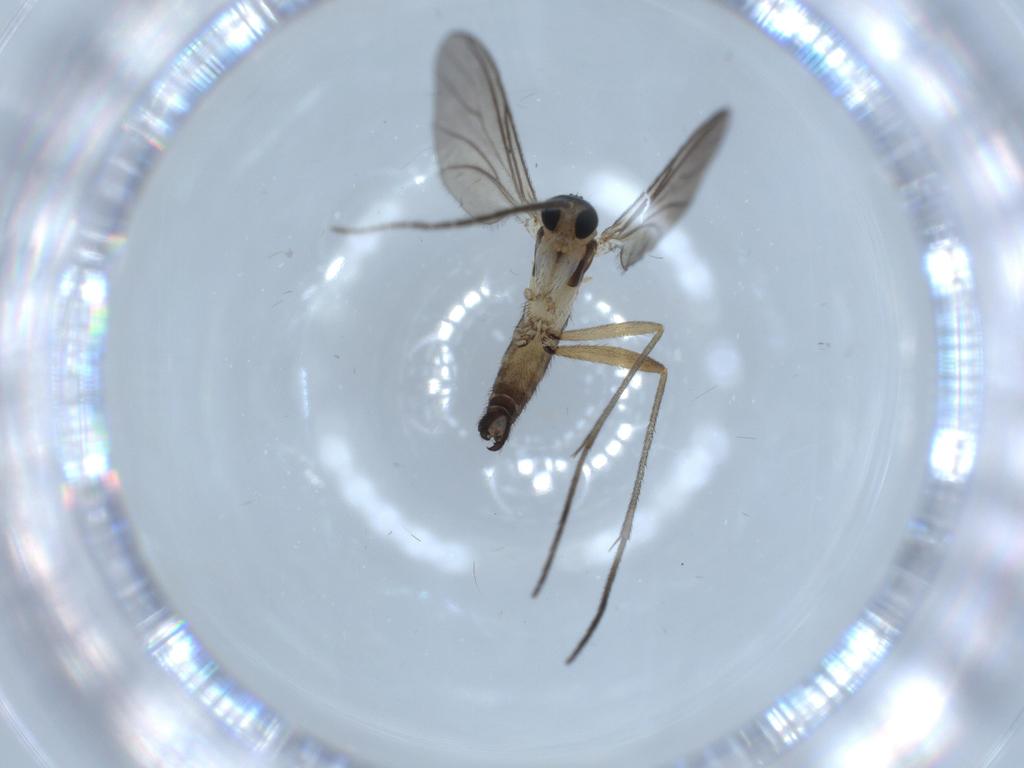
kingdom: Animalia
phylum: Arthropoda
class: Insecta
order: Diptera
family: Sciaridae
